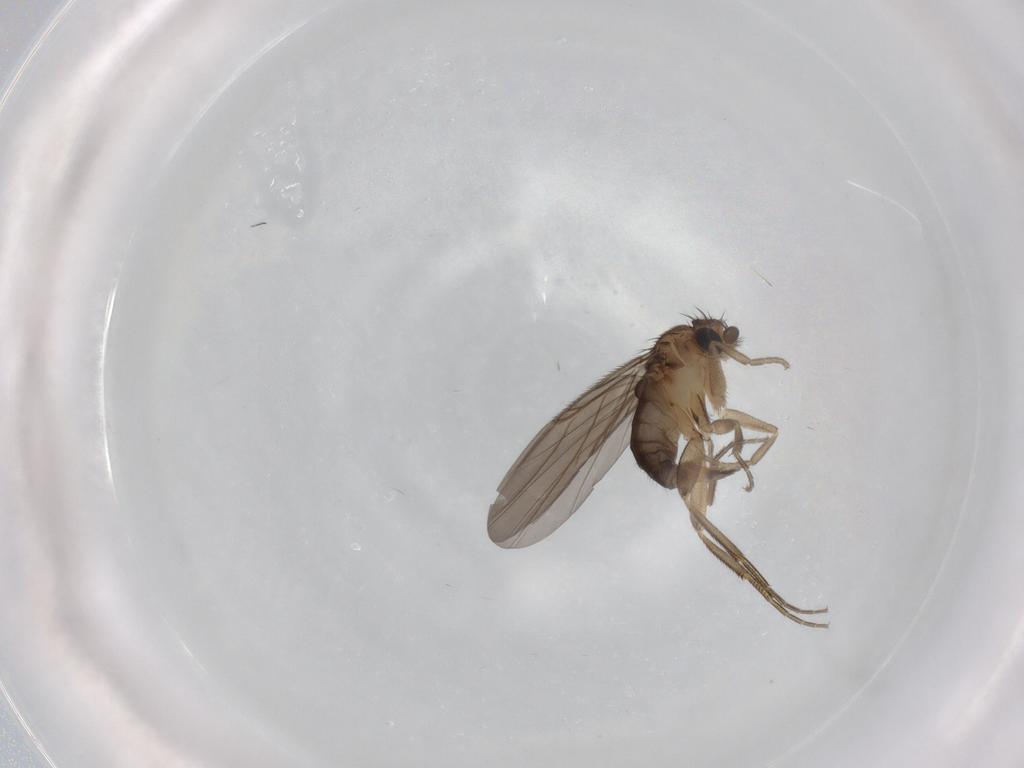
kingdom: Animalia
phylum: Arthropoda
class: Insecta
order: Diptera
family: Phoridae
